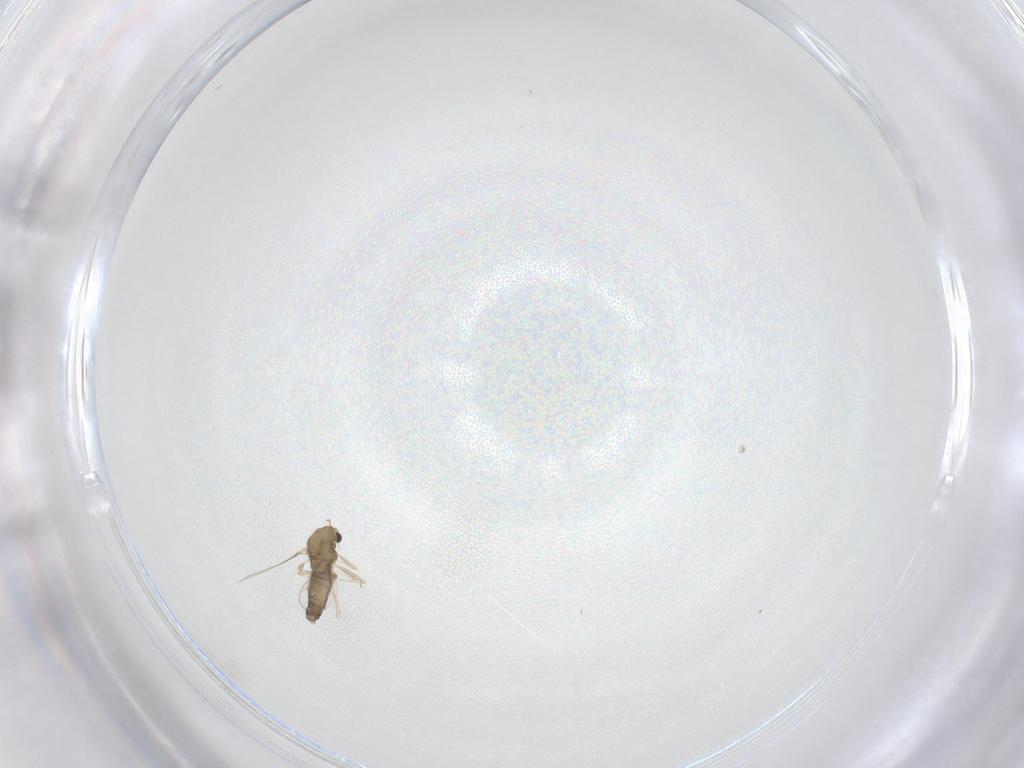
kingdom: Animalia
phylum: Arthropoda
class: Insecta
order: Diptera
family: Chironomidae
